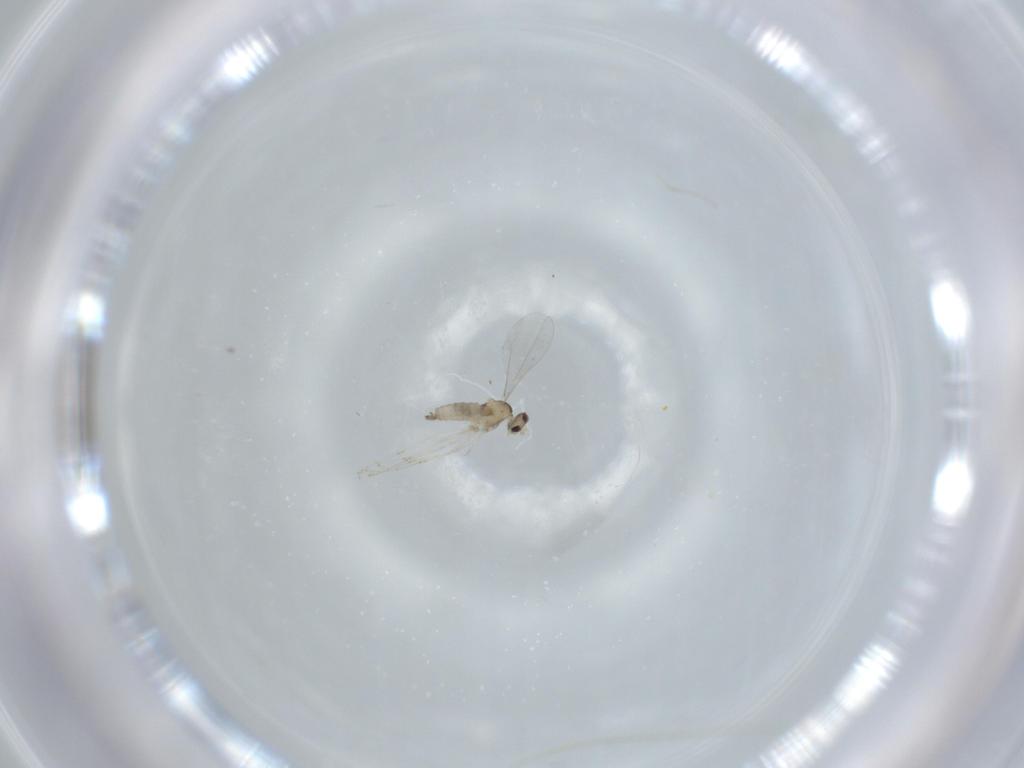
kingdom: Animalia
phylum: Arthropoda
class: Insecta
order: Diptera
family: Cecidomyiidae
